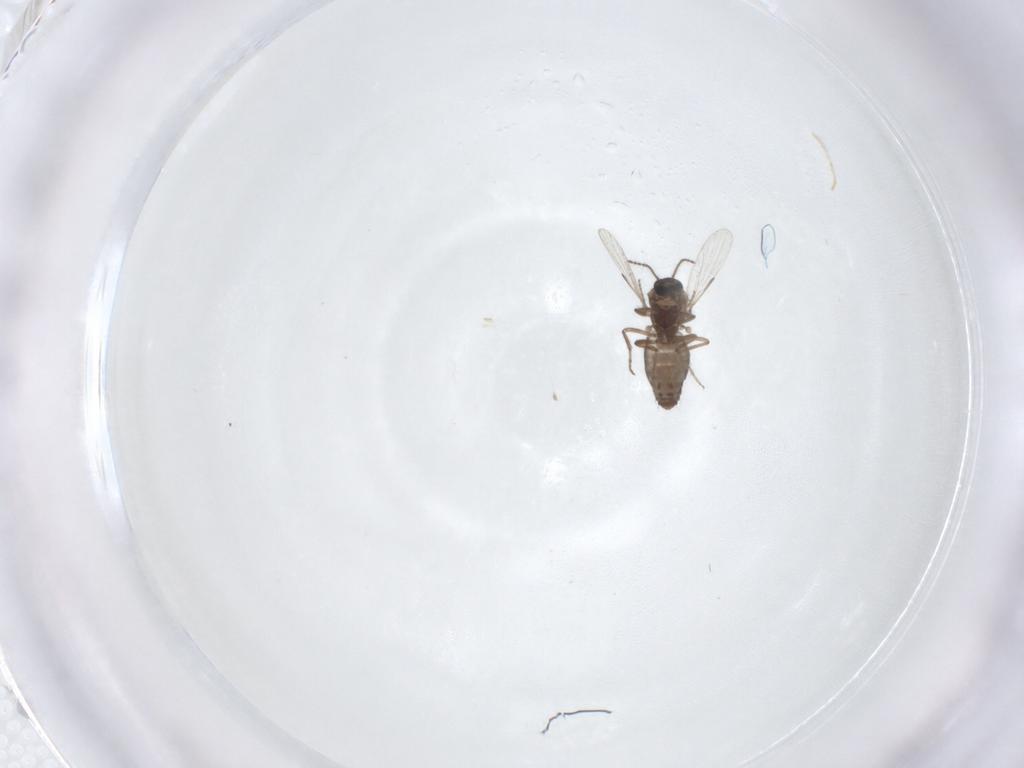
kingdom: Animalia
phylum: Arthropoda
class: Insecta
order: Diptera
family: Ceratopogonidae
